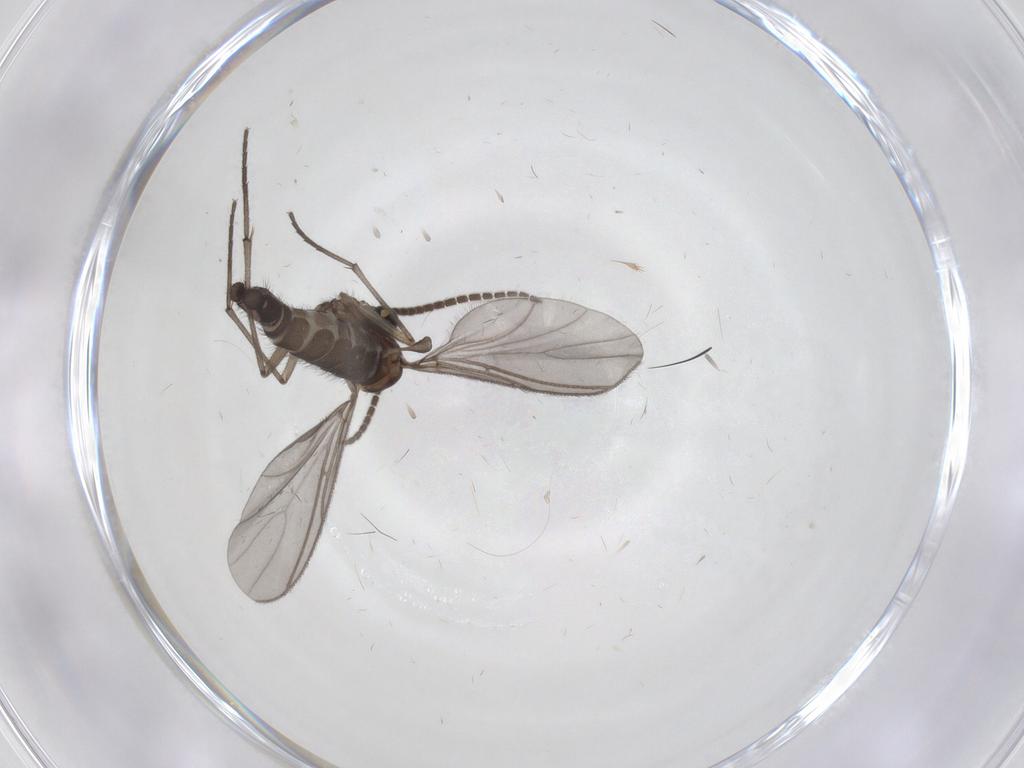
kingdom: Animalia
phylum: Arthropoda
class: Insecta
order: Diptera
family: Sciaridae
